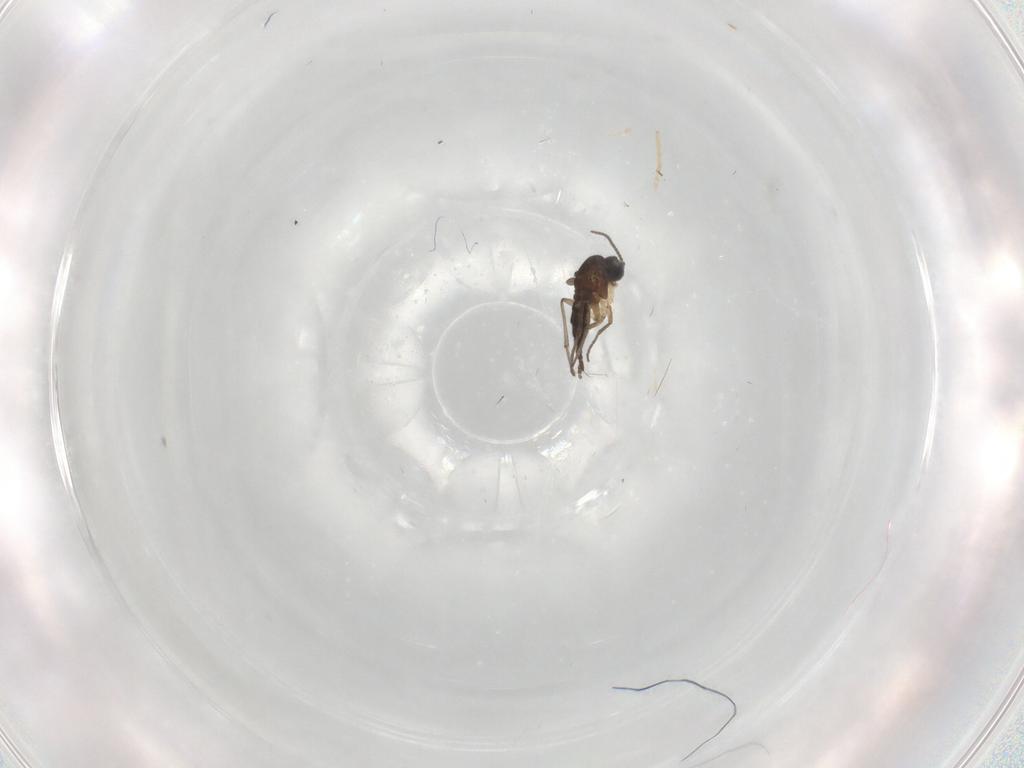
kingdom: Animalia
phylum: Arthropoda
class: Insecta
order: Diptera
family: Sciaridae
